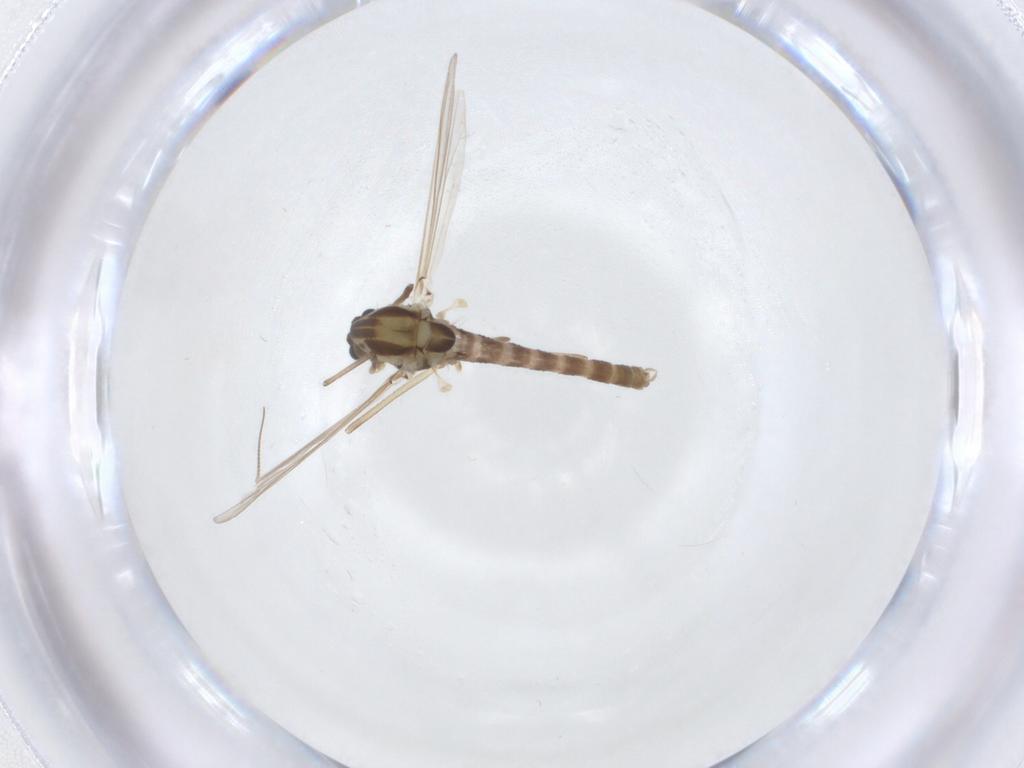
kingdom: Animalia
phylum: Arthropoda
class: Insecta
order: Diptera
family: Chironomidae
